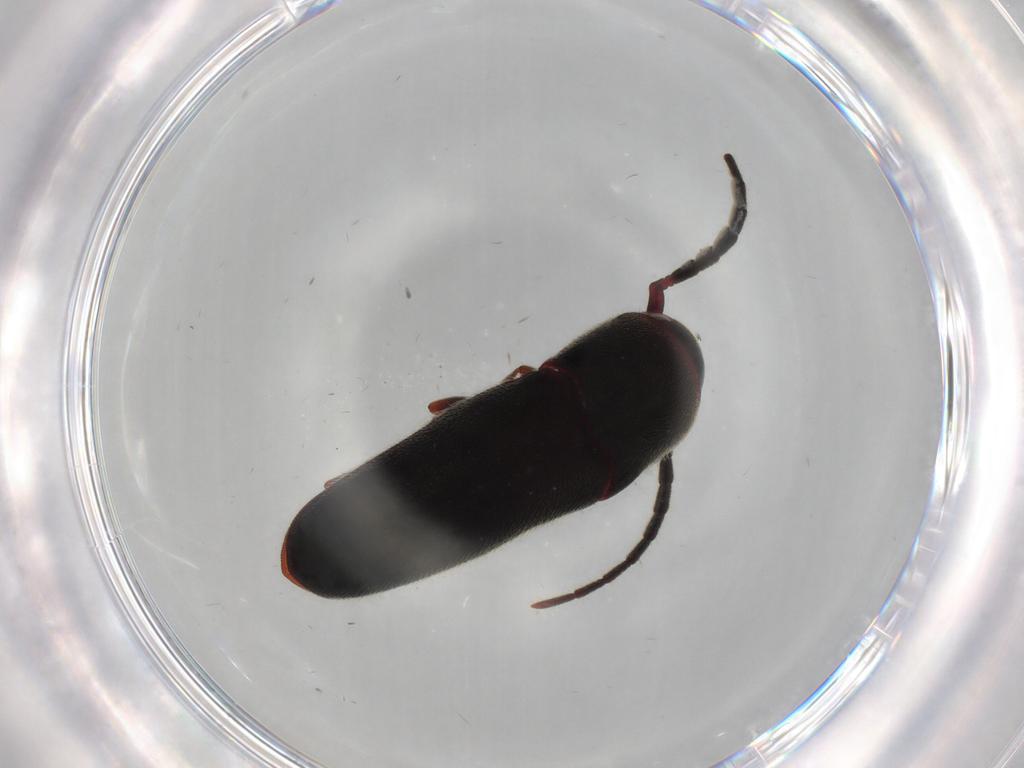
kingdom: Animalia
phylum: Arthropoda
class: Insecta
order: Coleoptera
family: Eucnemidae
